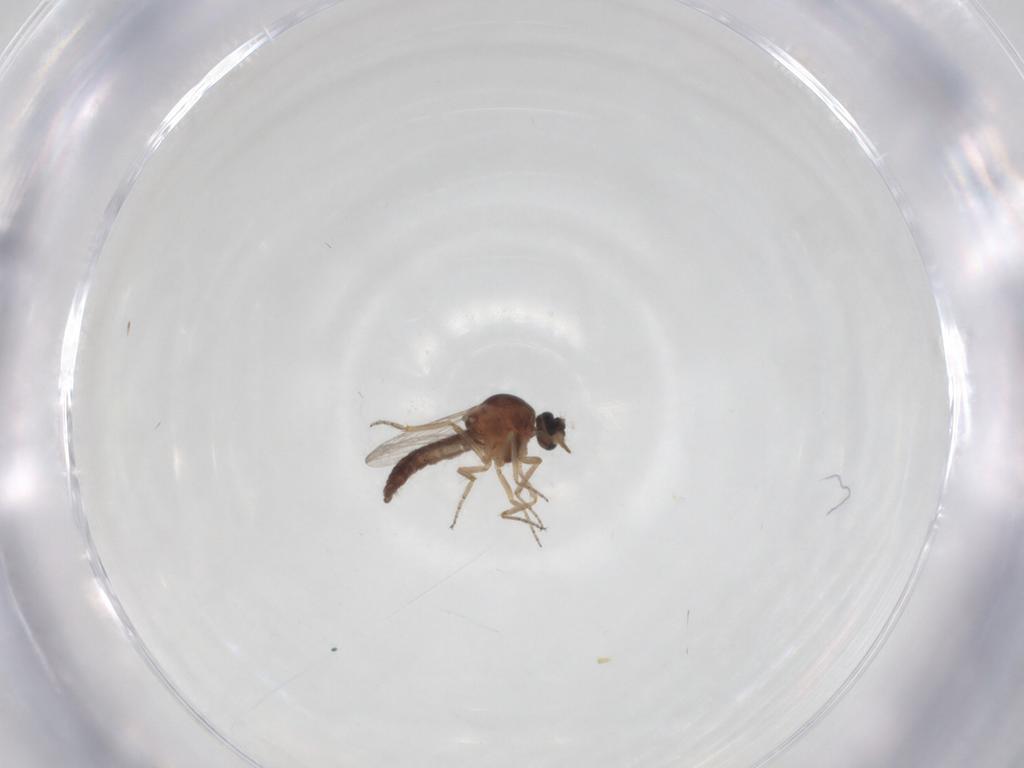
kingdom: Animalia
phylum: Arthropoda
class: Insecta
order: Diptera
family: Ceratopogonidae
